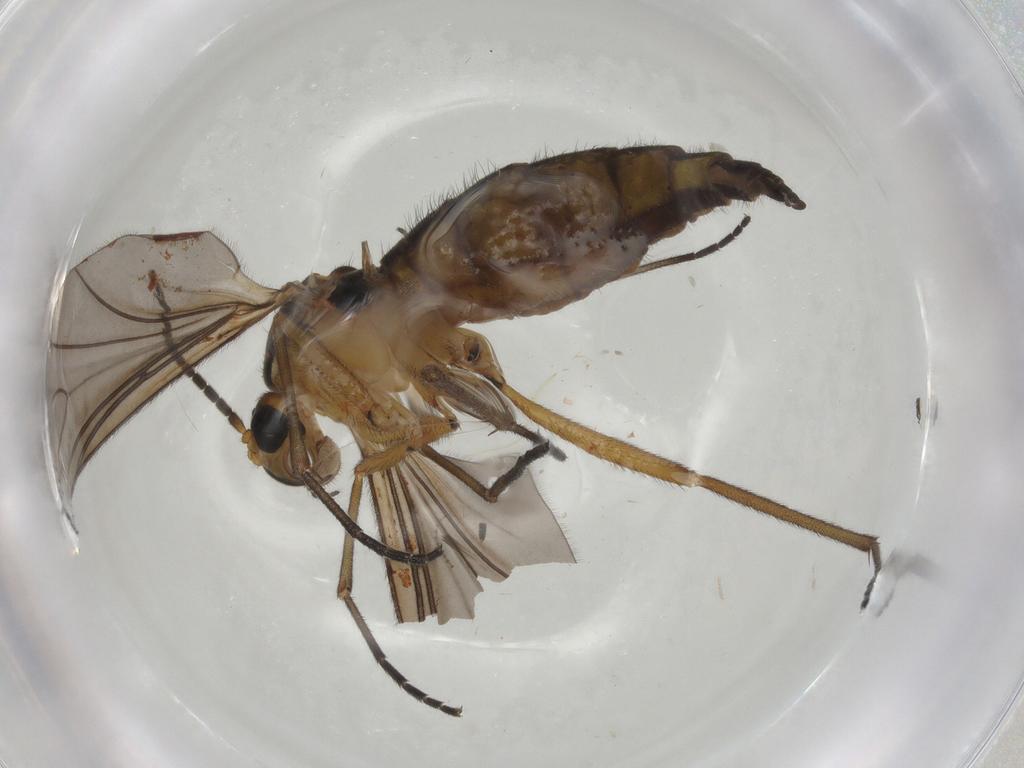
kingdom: Animalia
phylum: Arthropoda
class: Insecta
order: Diptera
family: Sciaridae
